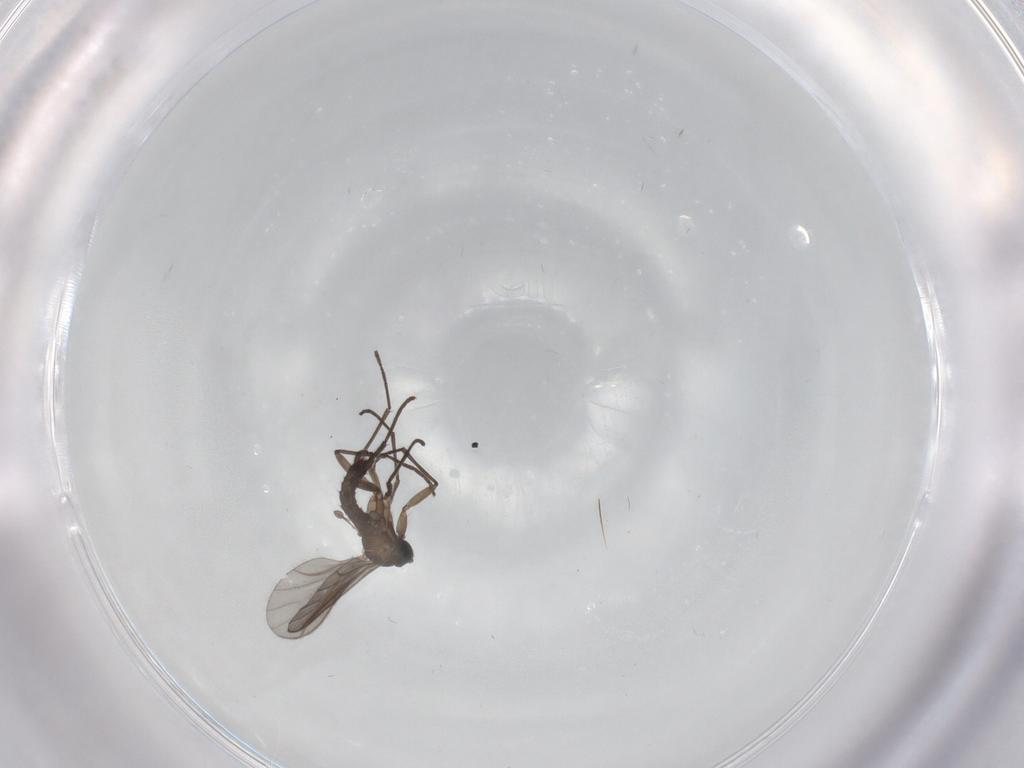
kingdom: Animalia
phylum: Arthropoda
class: Insecta
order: Diptera
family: Sciaridae
